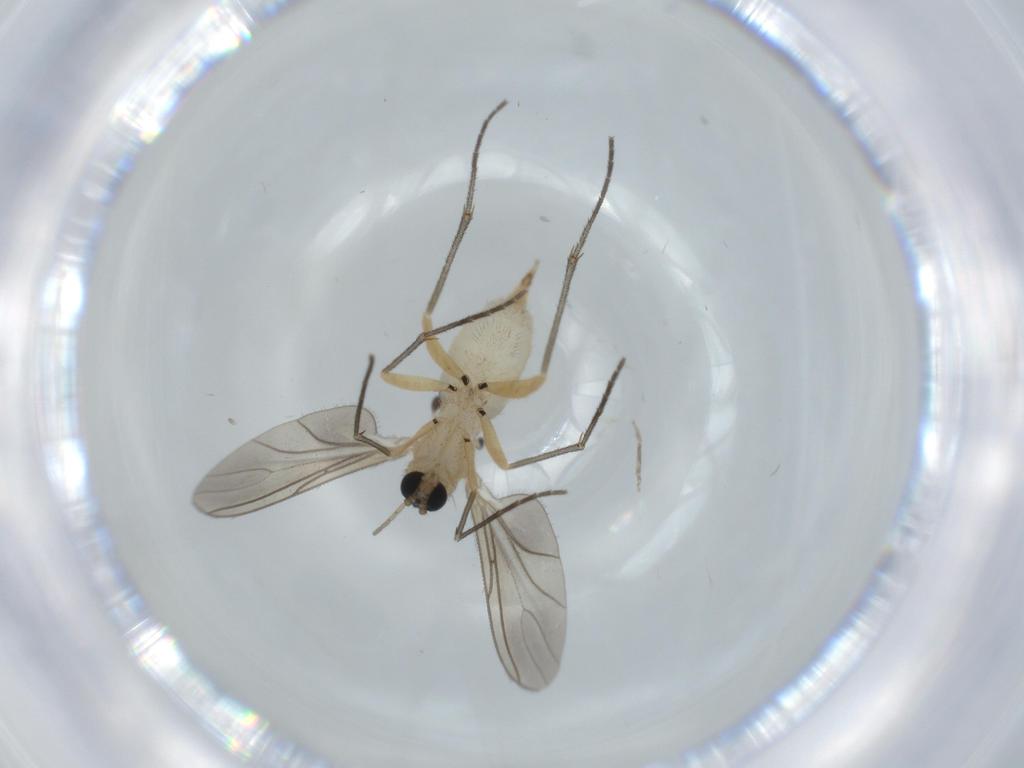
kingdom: Animalia
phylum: Arthropoda
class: Insecta
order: Diptera
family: Sciaridae
